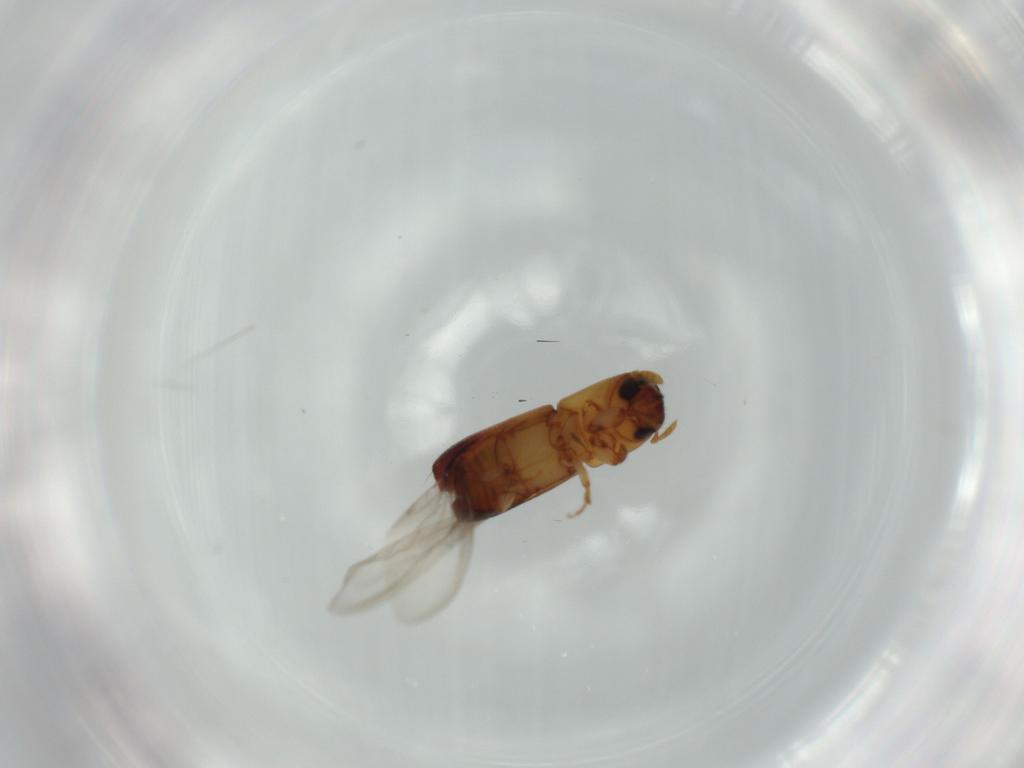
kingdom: Animalia
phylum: Arthropoda
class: Insecta
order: Coleoptera
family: Curculionidae
